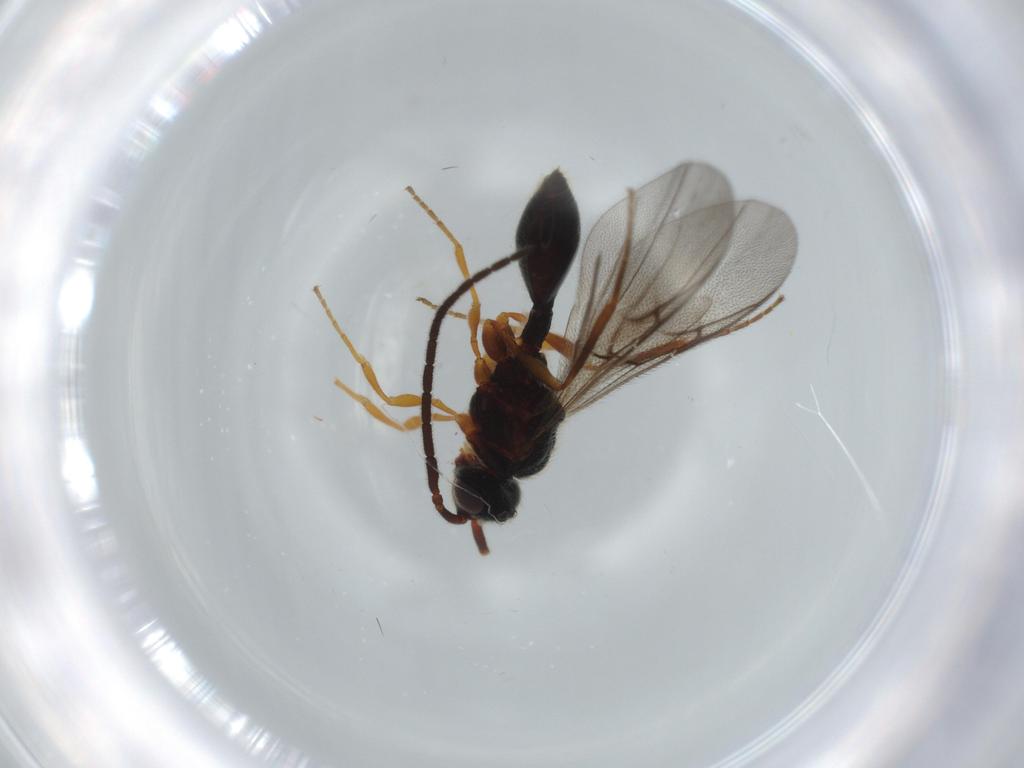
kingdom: Animalia
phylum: Arthropoda
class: Insecta
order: Hymenoptera
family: Diapriidae
